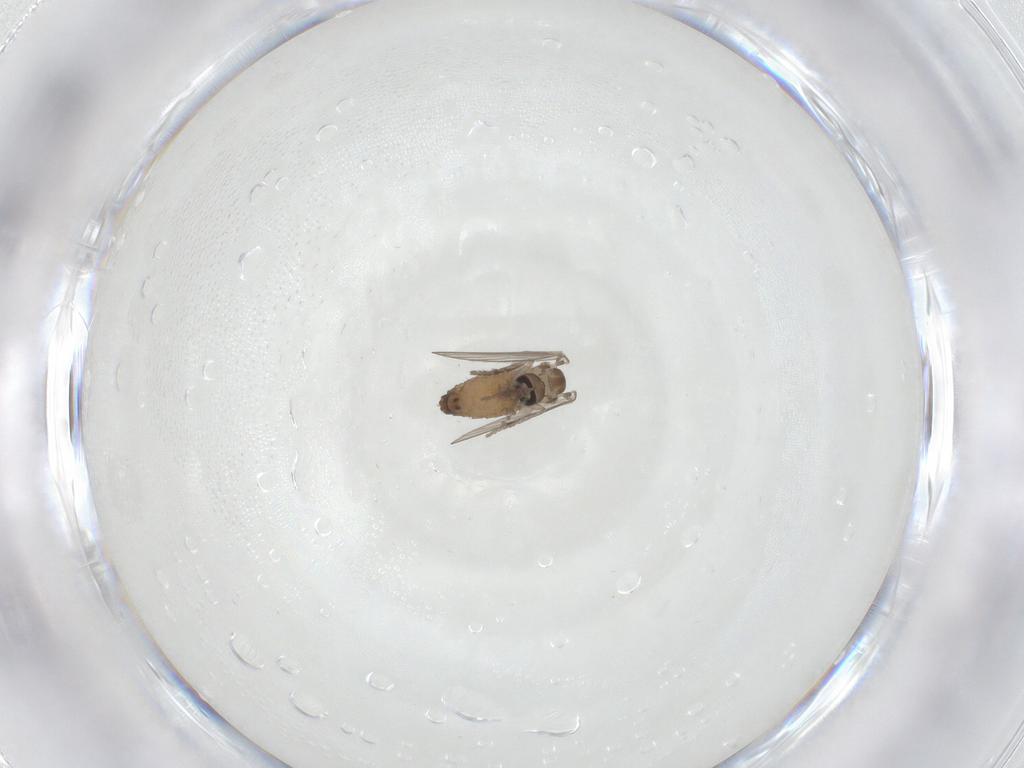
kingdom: Animalia
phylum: Arthropoda
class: Insecta
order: Diptera
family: Psychodidae
